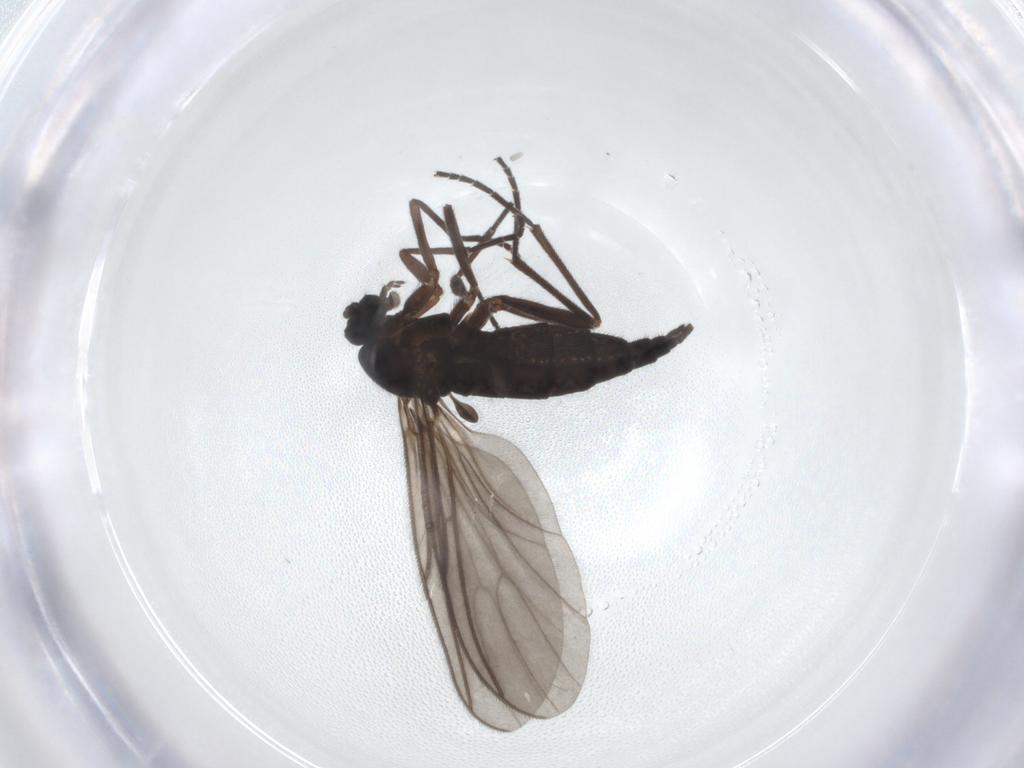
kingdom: Animalia
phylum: Arthropoda
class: Insecta
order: Diptera
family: Sciaridae
